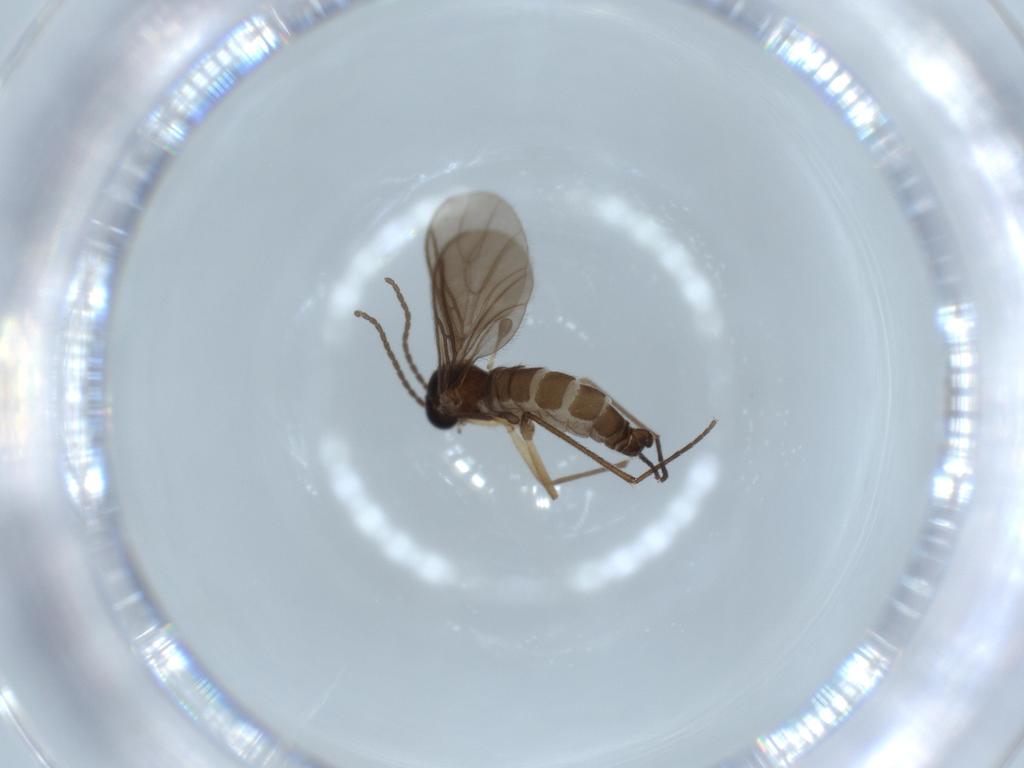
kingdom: Animalia
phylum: Arthropoda
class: Insecta
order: Diptera
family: Sciaridae
